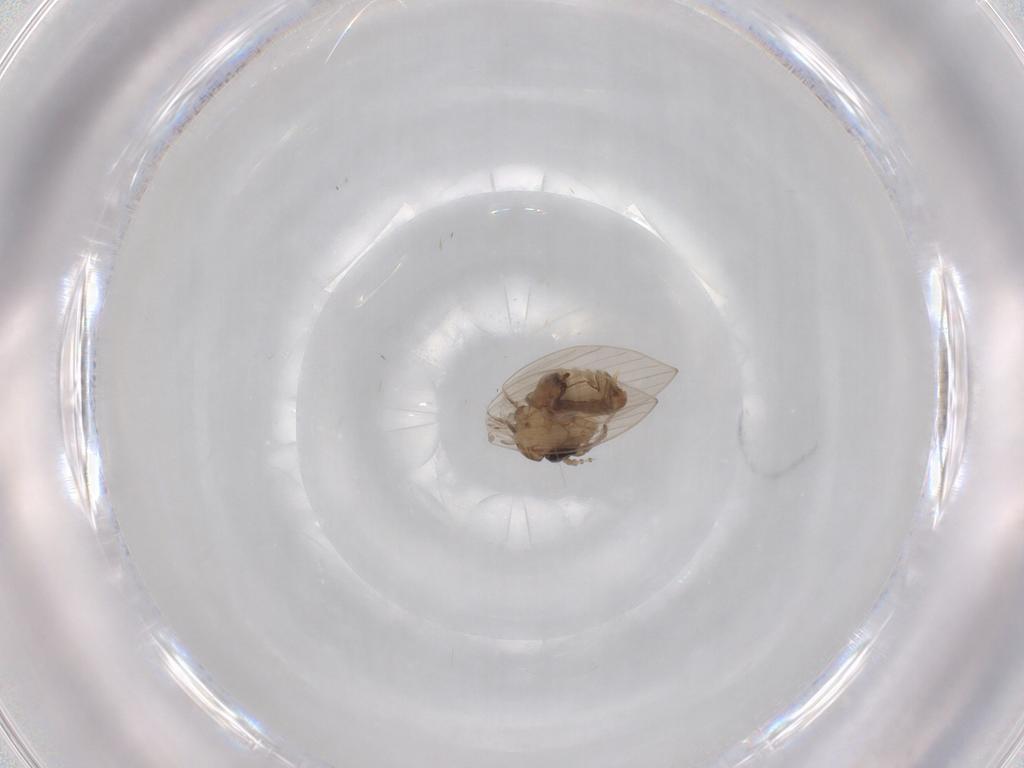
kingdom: Animalia
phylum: Arthropoda
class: Insecta
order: Diptera
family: Psychodidae
